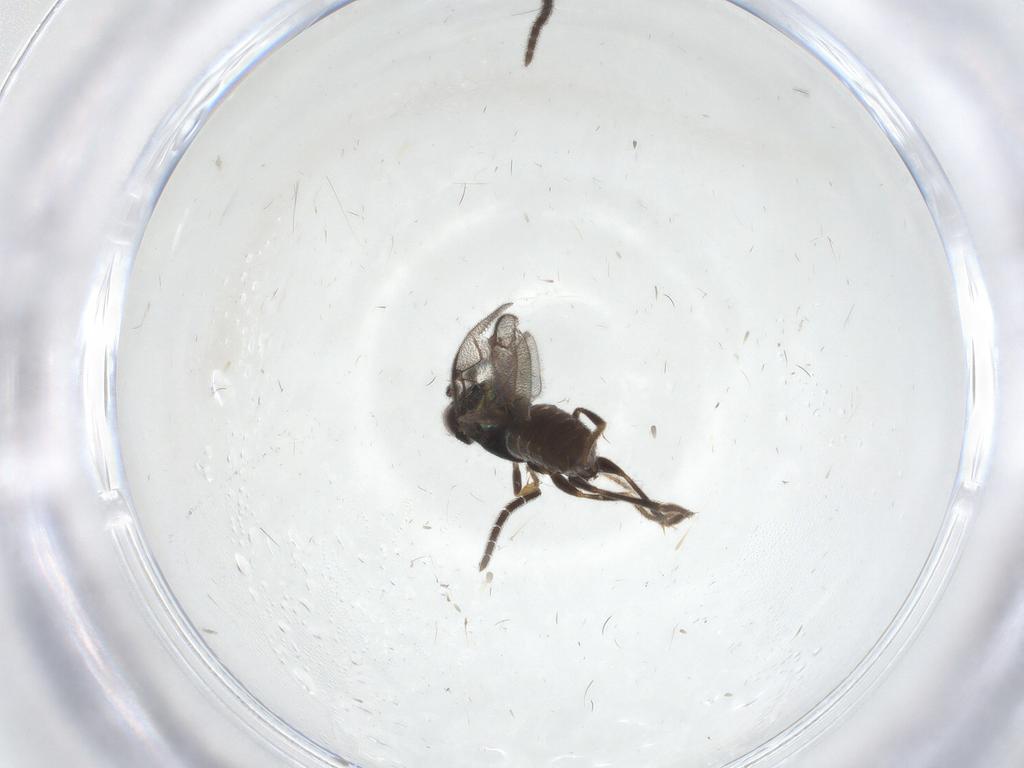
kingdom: Animalia
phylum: Arthropoda
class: Insecta
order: Hymenoptera
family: Dryinidae
